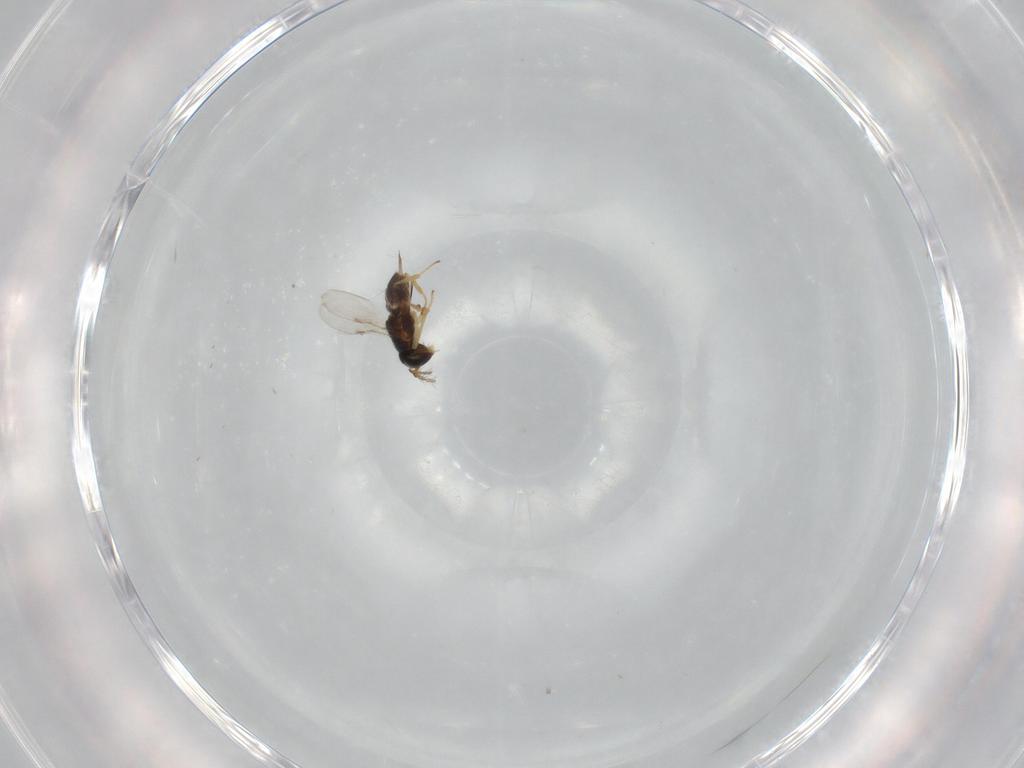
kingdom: Animalia
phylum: Arthropoda
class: Insecta
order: Hymenoptera
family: Encyrtidae
